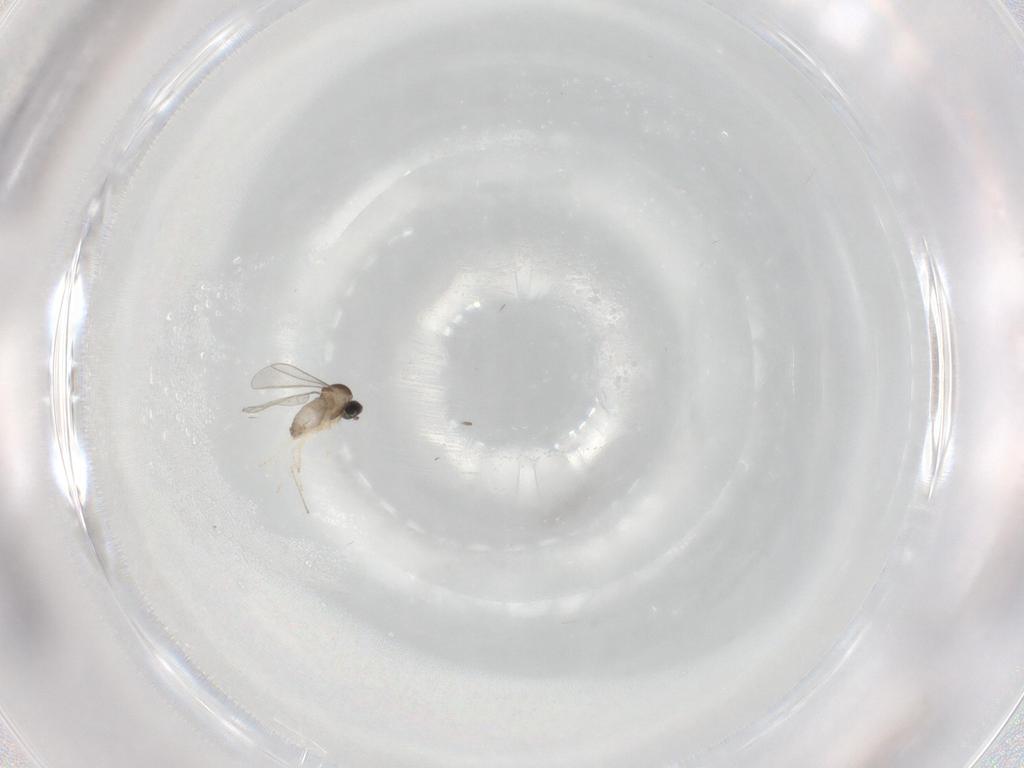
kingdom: Animalia
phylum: Arthropoda
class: Insecta
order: Diptera
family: Cecidomyiidae
